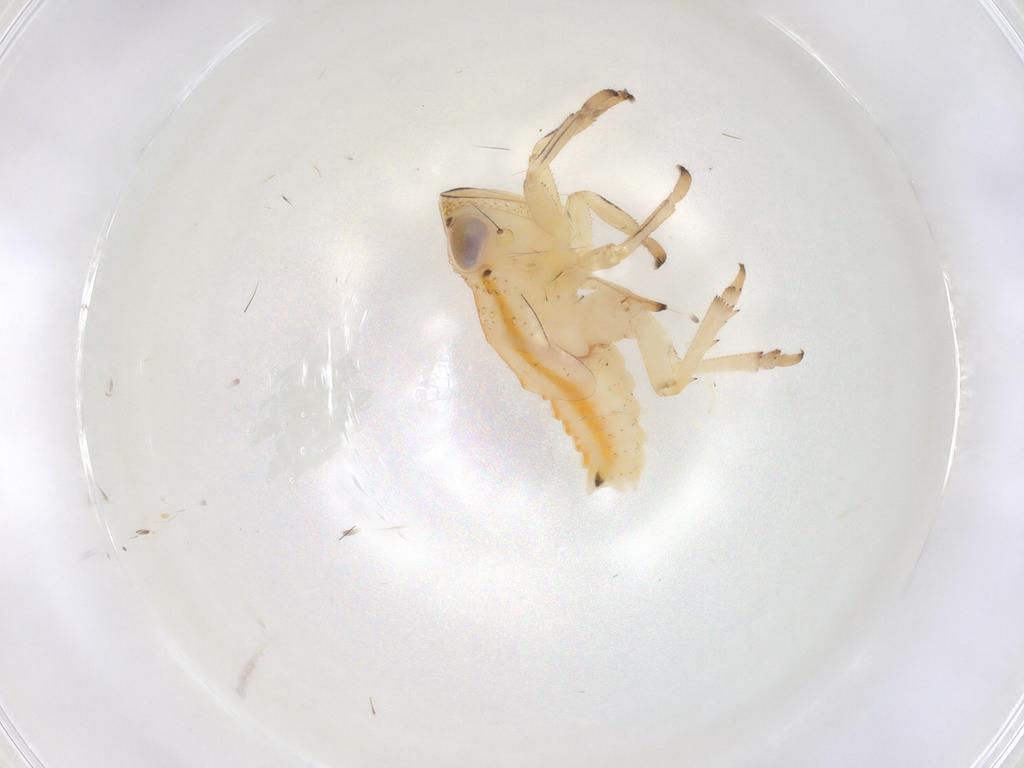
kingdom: Animalia
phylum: Arthropoda
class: Insecta
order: Hemiptera
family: Issidae
